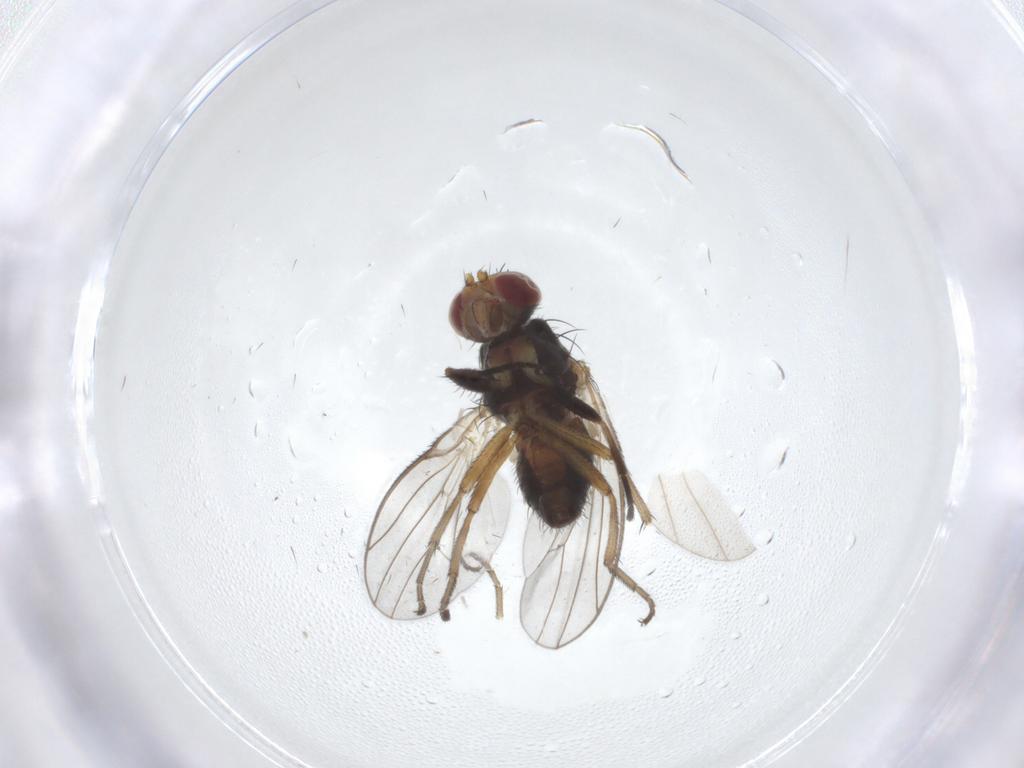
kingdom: Animalia
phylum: Arthropoda
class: Insecta
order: Diptera
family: Heleomyzidae
